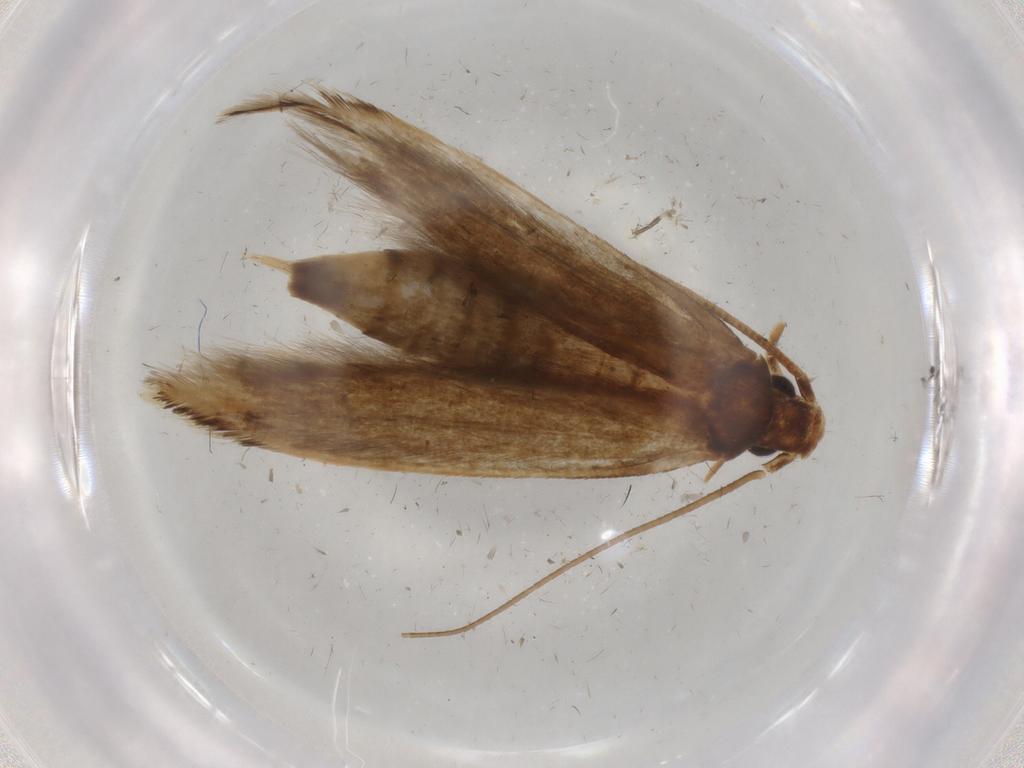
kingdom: Animalia
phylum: Arthropoda
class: Insecta
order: Lepidoptera
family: Tineidae
